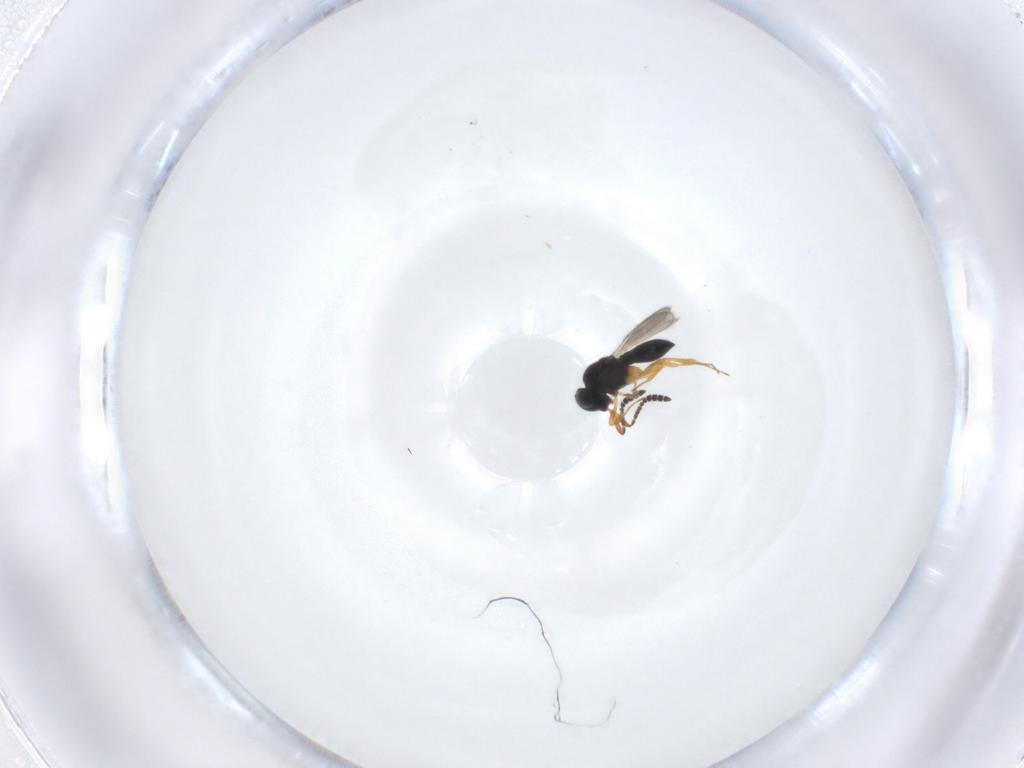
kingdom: Animalia
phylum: Arthropoda
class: Insecta
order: Hymenoptera
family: Scelionidae
